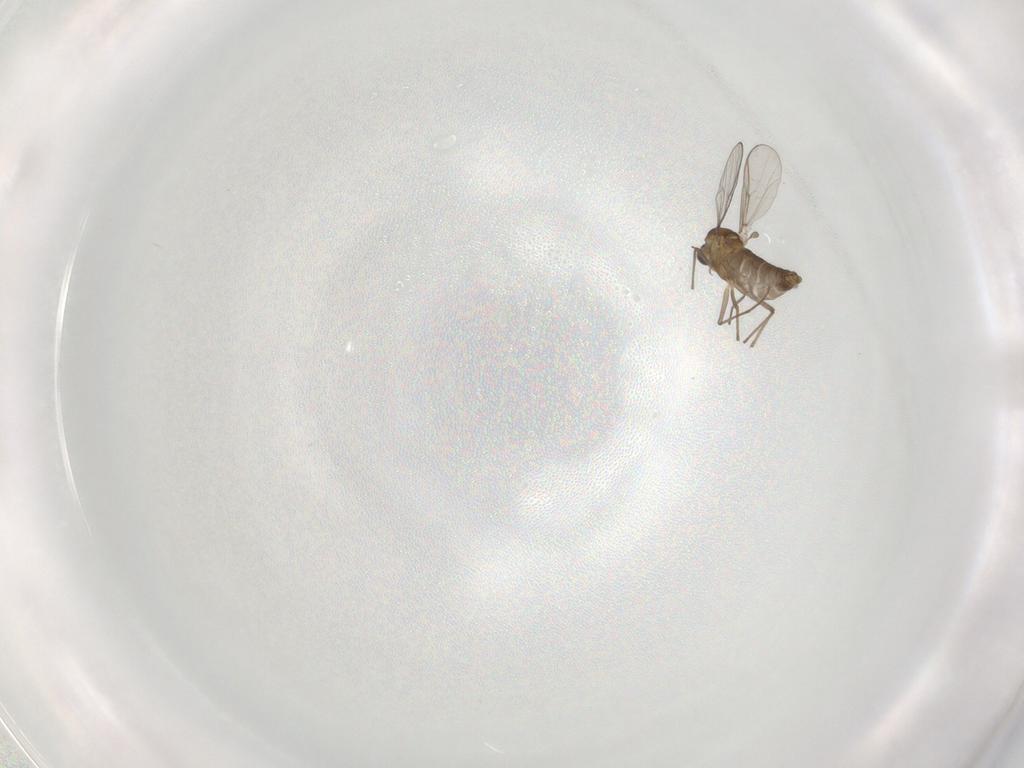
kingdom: Animalia
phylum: Arthropoda
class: Insecta
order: Diptera
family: Chironomidae
